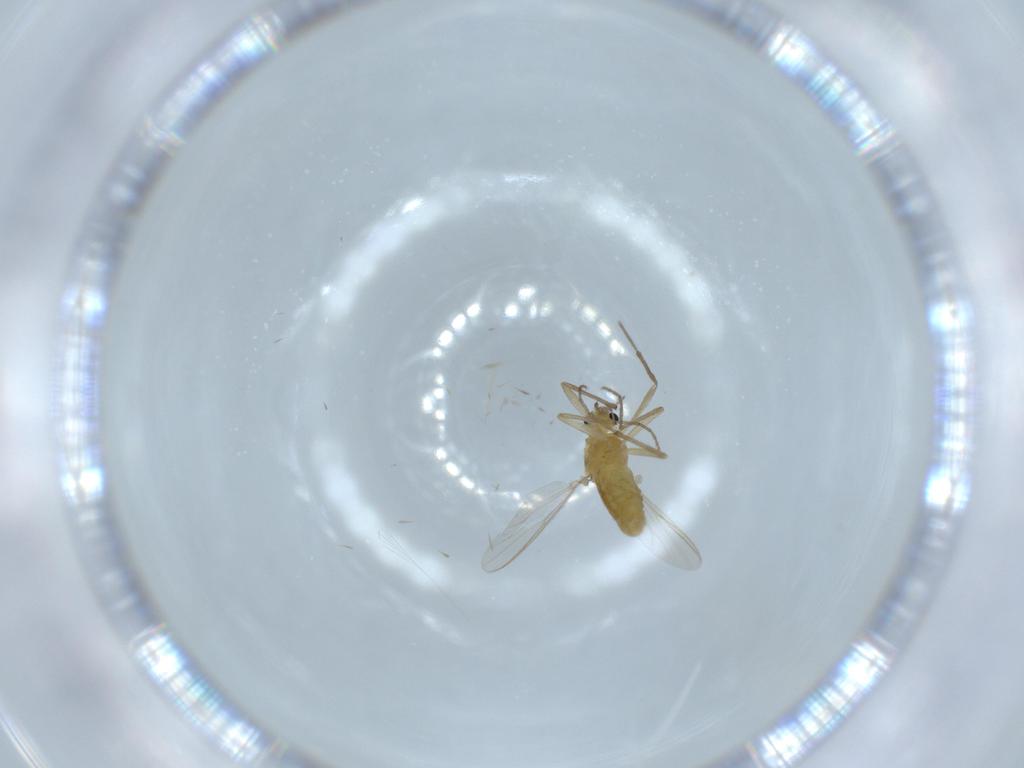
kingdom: Animalia
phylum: Arthropoda
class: Insecta
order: Diptera
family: Chironomidae
